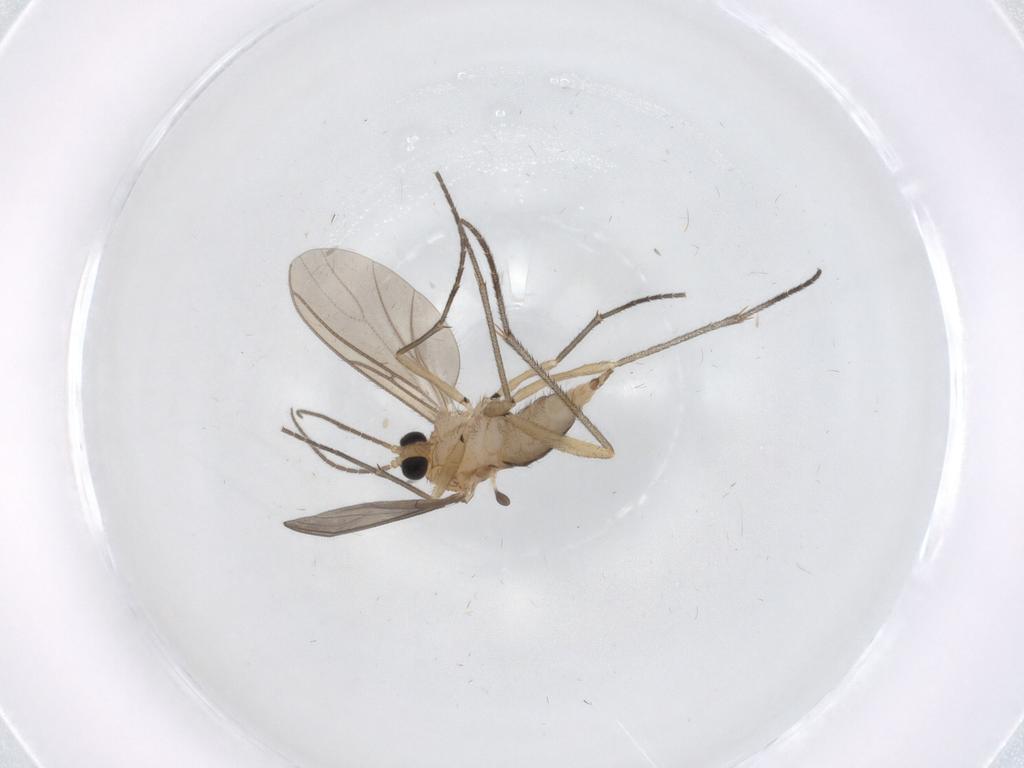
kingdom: Animalia
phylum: Arthropoda
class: Insecta
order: Diptera
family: Sciaridae
